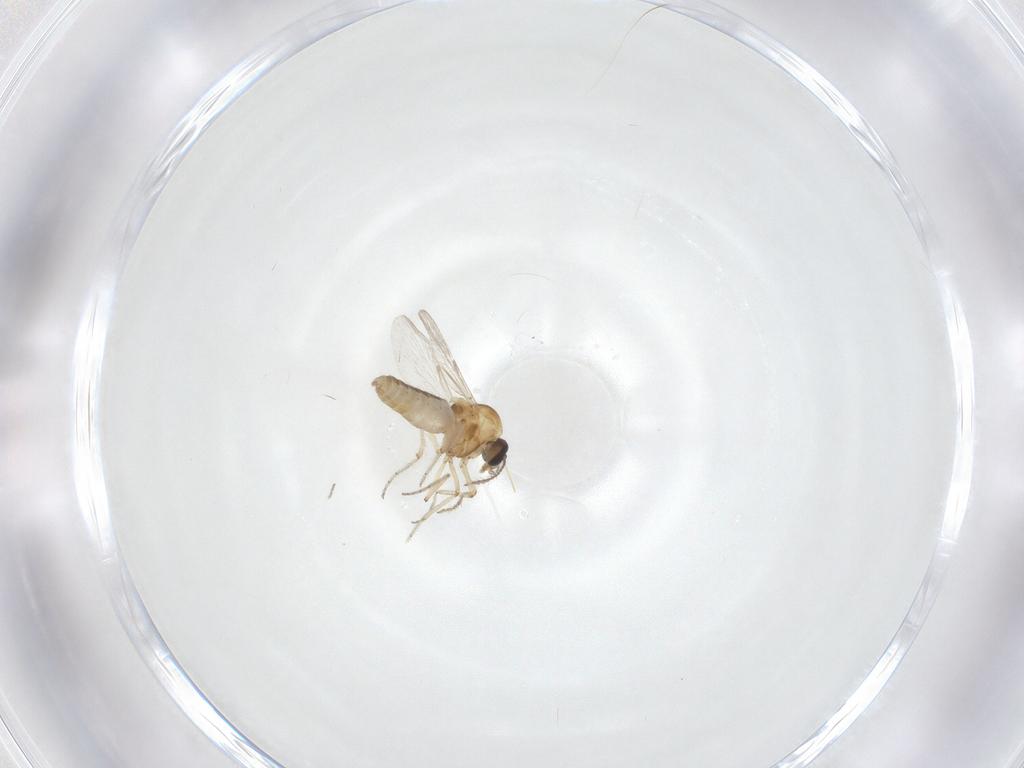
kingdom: Animalia
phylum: Arthropoda
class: Insecta
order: Diptera
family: Ceratopogonidae
